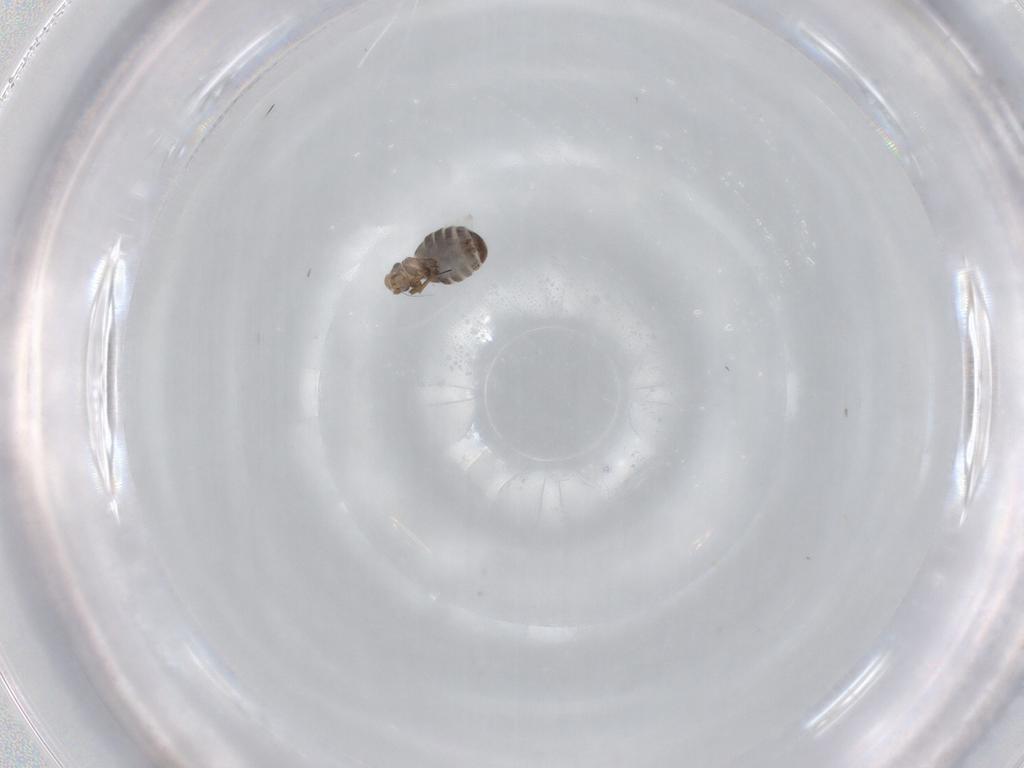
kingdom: Animalia
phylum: Arthropoda
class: Insecta
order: Diptera
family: Phoridae
